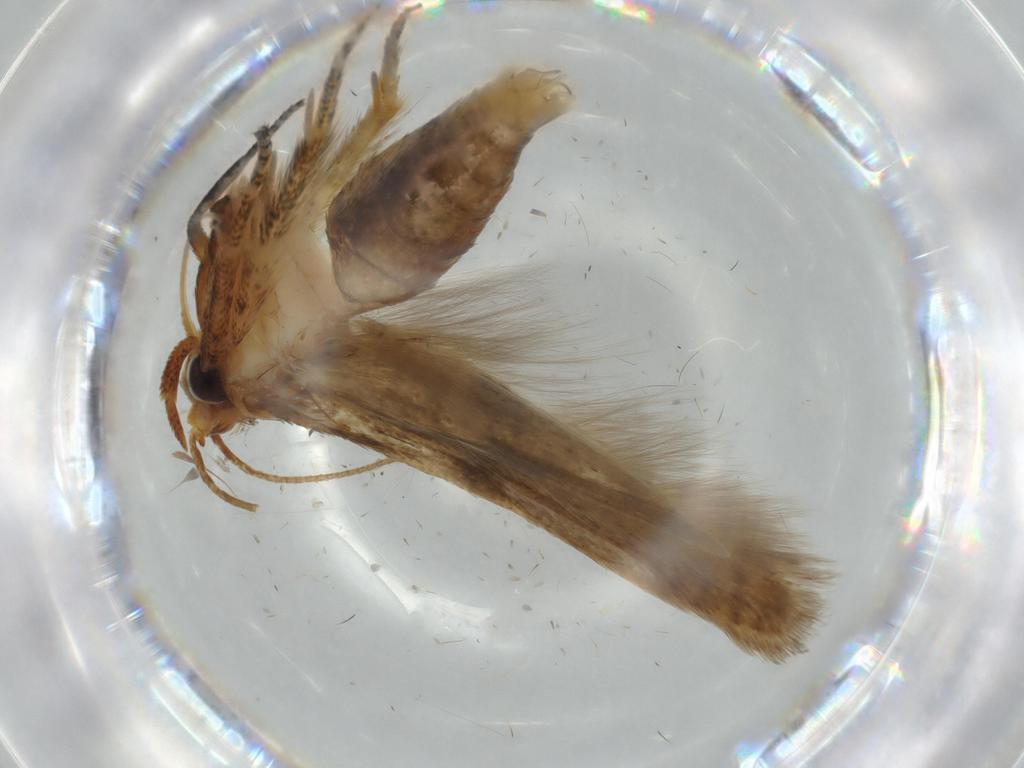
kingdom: Animalia
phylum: Arthropoda
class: Insecta
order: Lepidoptera
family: Blastobasidae
